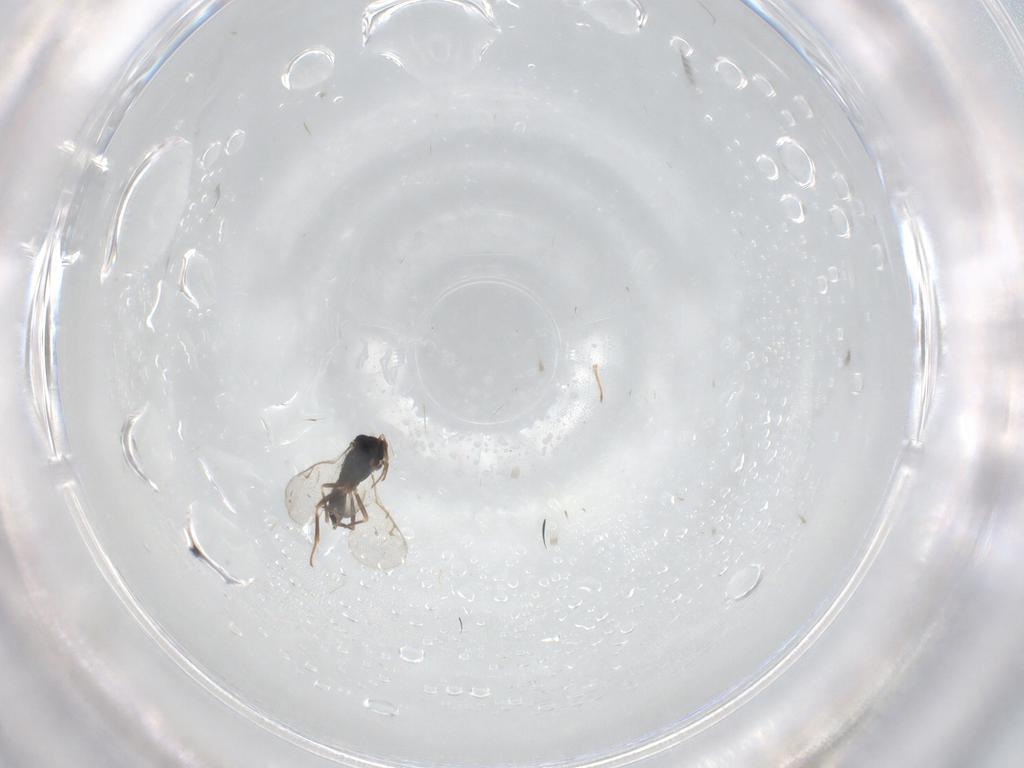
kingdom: Animalia
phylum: Arthropoda
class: Insecta
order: Hymenoptera
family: Eupelmidae
